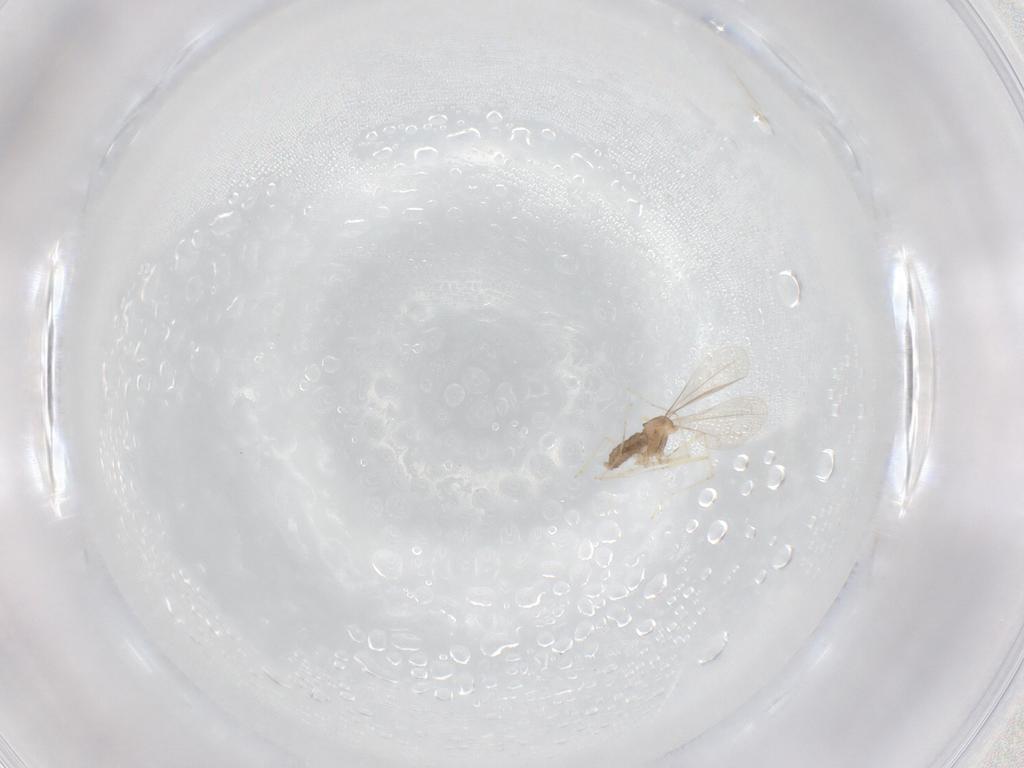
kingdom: Animalia
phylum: Arthropoda
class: Insecta
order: Diptera
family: Cecidomyiidae
